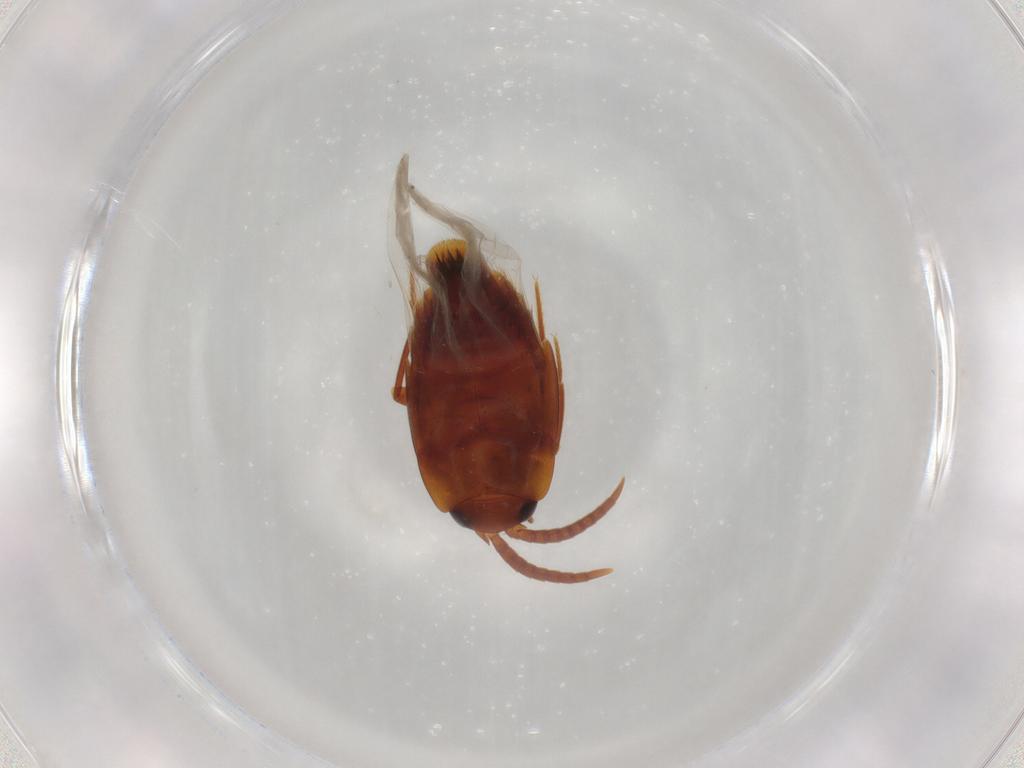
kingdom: Animalia
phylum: Arthropoda
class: Insecta
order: Coleoptera
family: Staphylinidae
